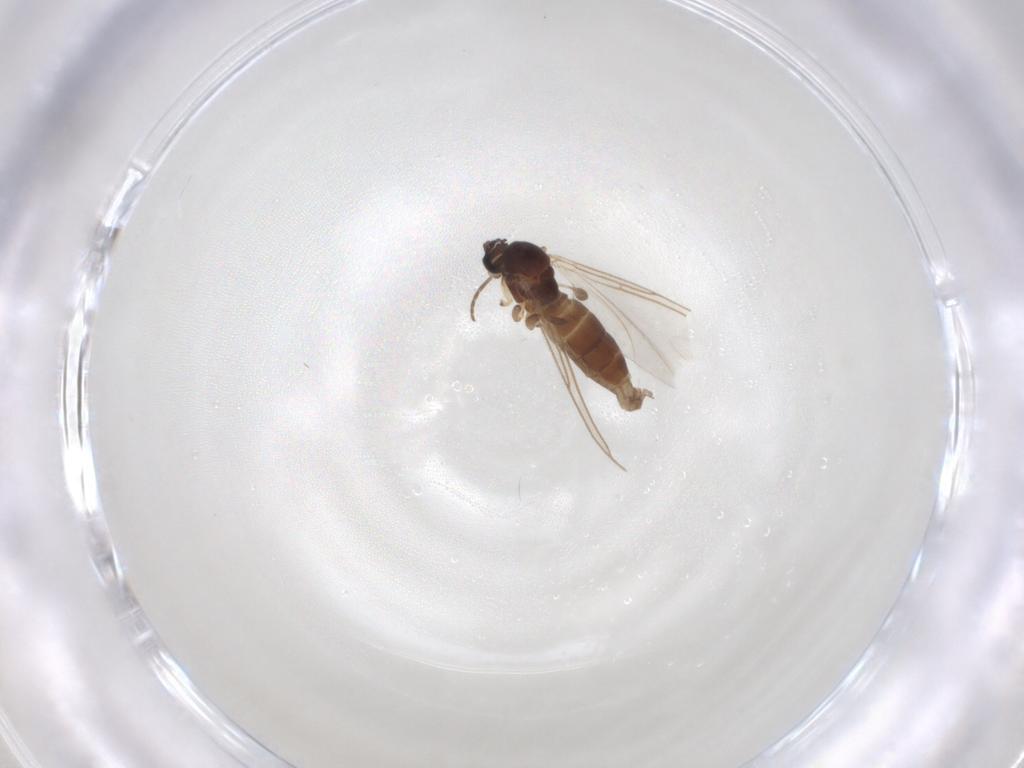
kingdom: Animalia
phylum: Arthropoda
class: Insecta
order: Diptera
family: Sciaridae
